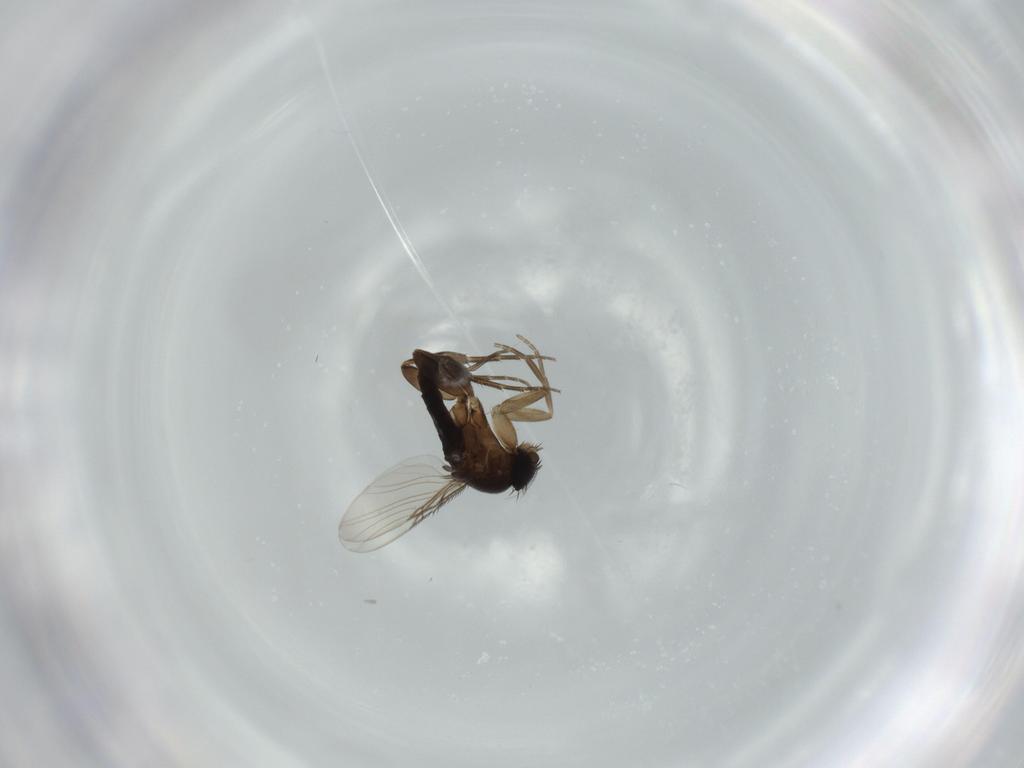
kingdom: Animalia
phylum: Arthropoda
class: Insecta
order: Diptera
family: Phoridae
